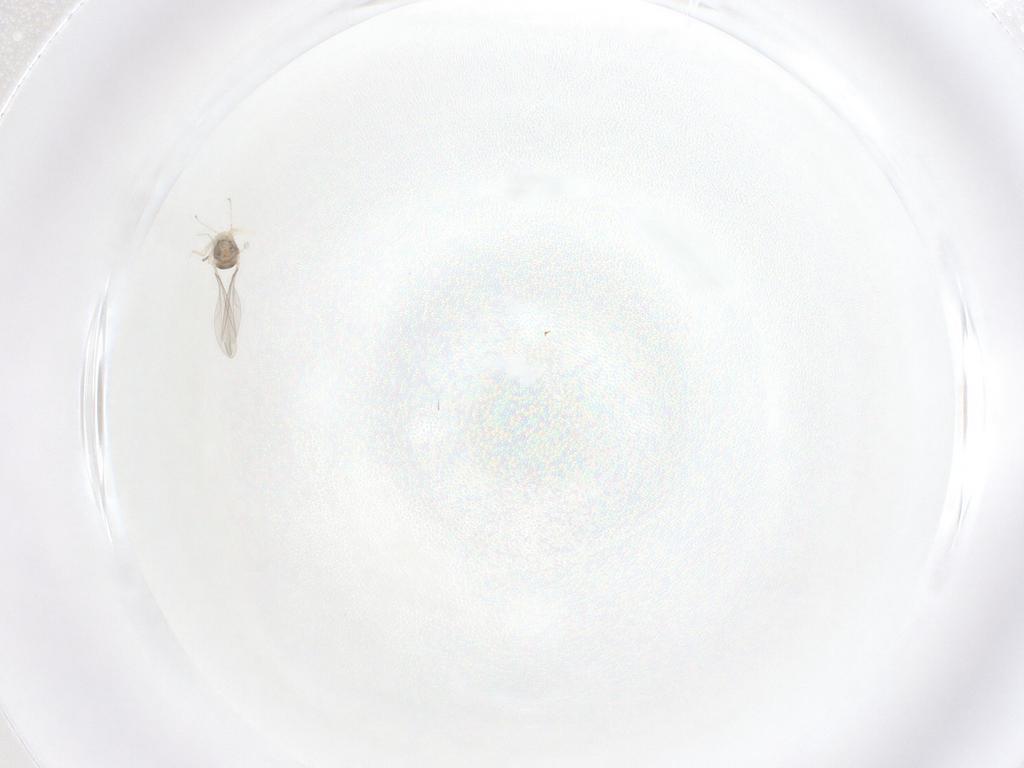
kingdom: Animalia
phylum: Arthropoda
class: Insecta
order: Diptera
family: Cecidomyiidae
